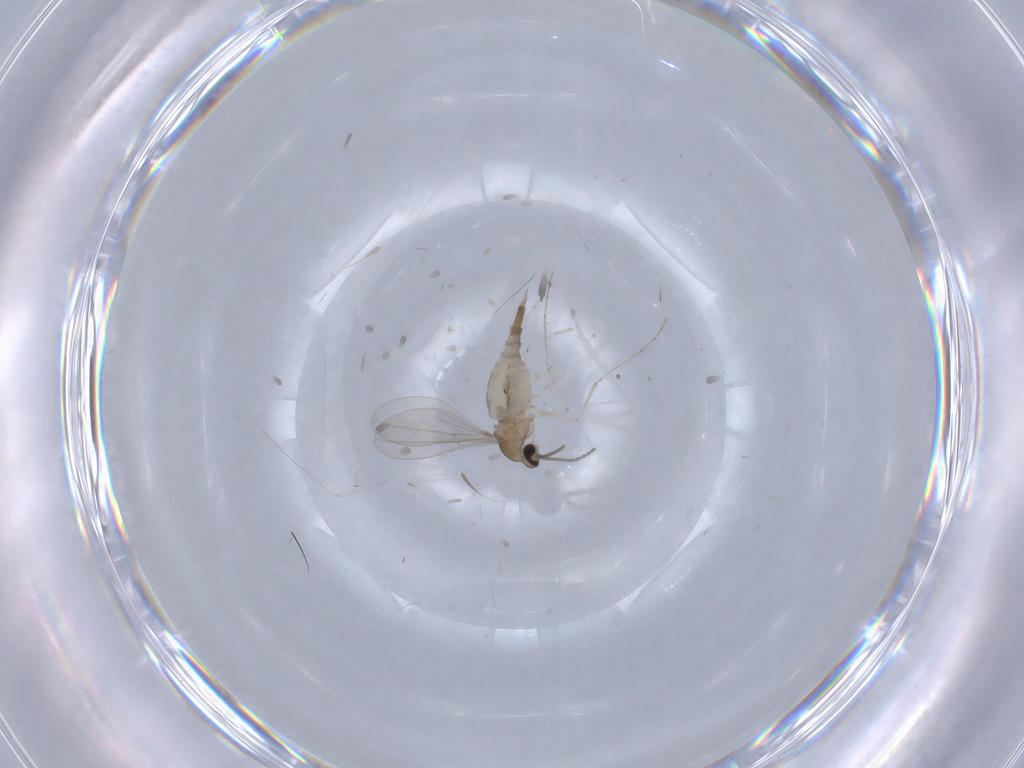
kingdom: Animalia
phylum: Arthropoda
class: Insecta
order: Diptera
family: Cecidomyiidae
